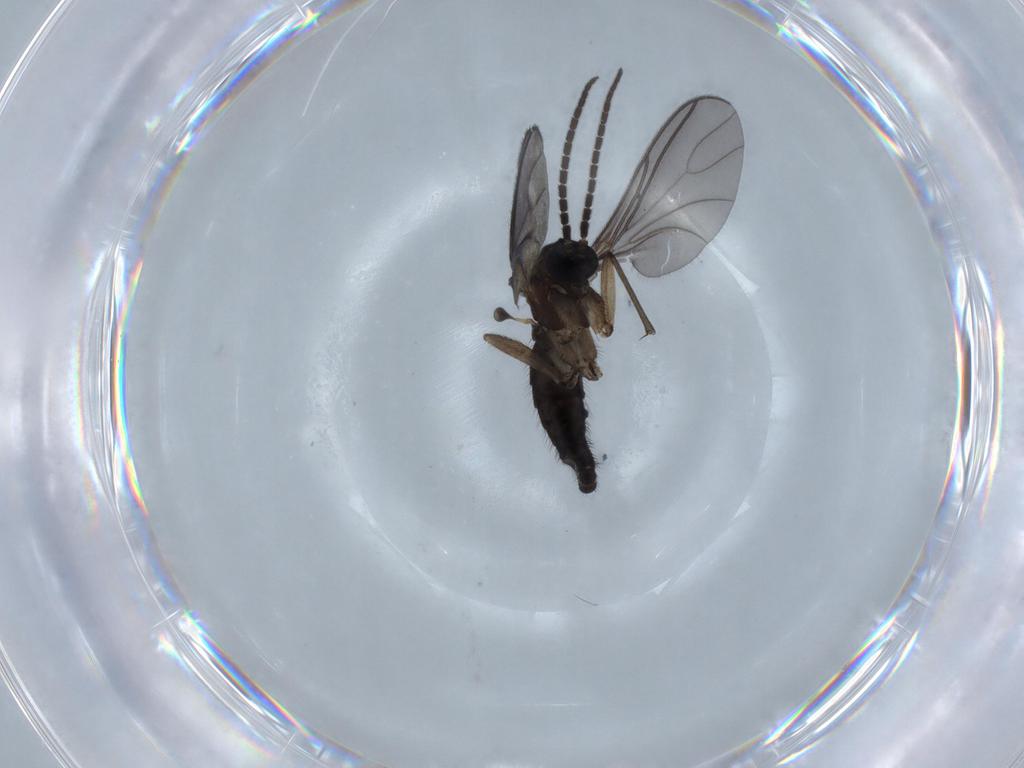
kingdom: Animalia
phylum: Arthropoda
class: Insecta
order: Diptera
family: Sciaridae
